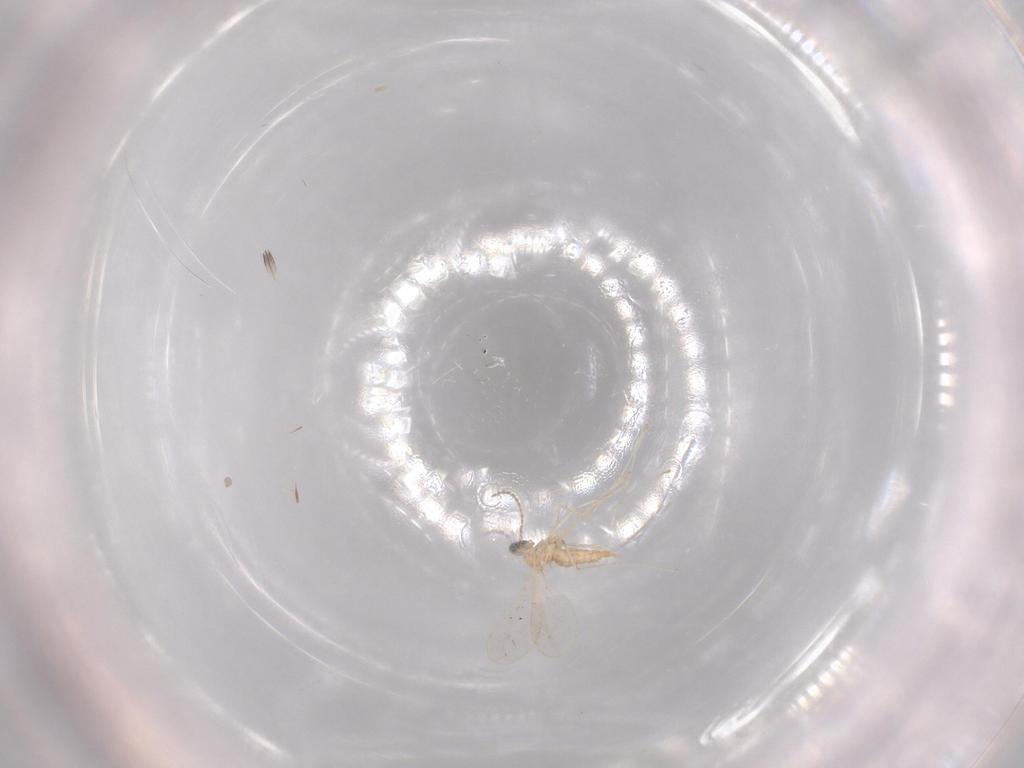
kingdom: Animalia
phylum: Arthropoda
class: Insecta
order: Diptera
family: Cecidomyiidae
